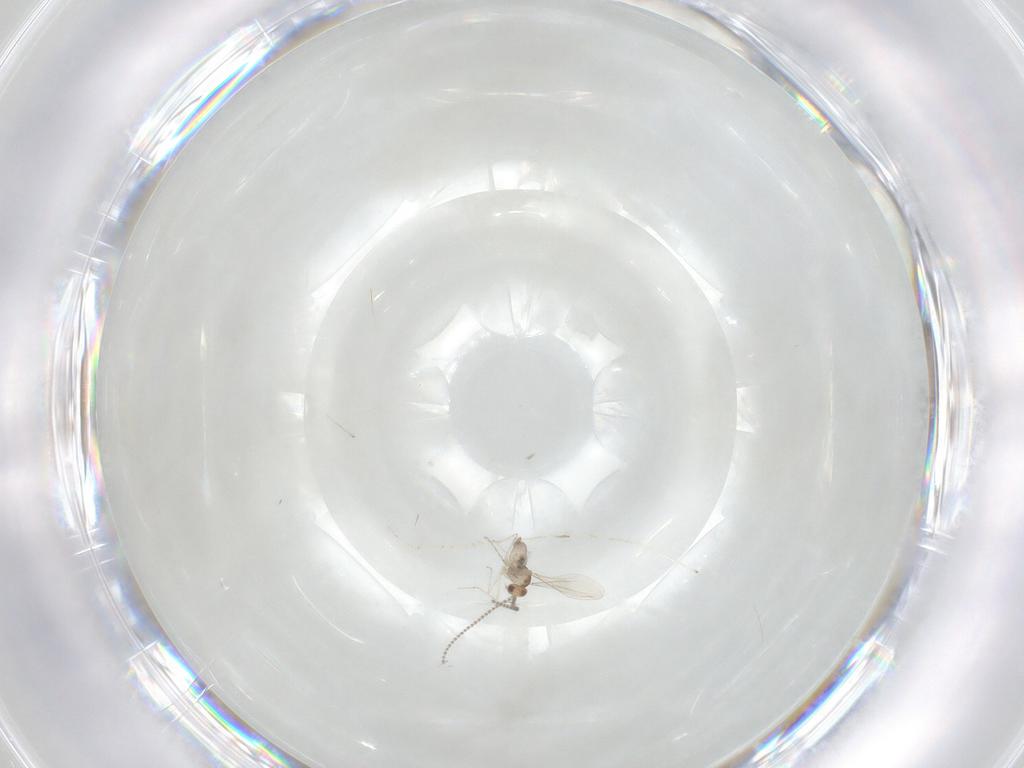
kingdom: Animalia
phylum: Arthropoda
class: Insecta
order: Diptera
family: Cecidomyiidae
